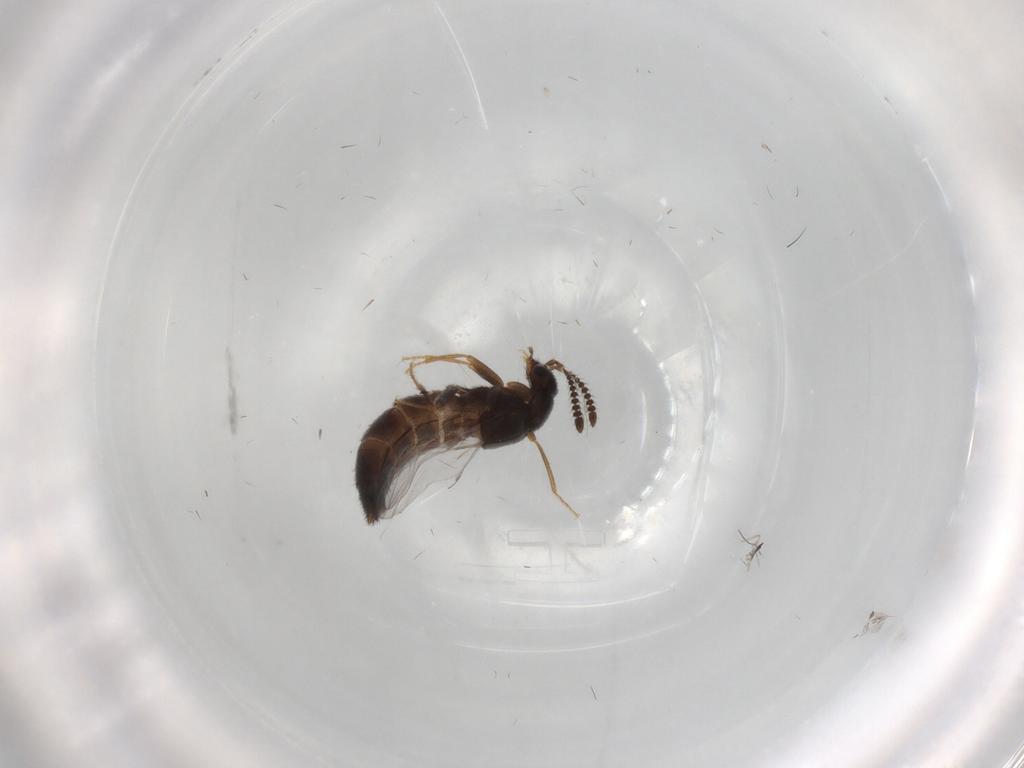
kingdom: Animalia
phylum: Arthropoda
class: Insecta
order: Coleoptera
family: Staphylinidae
